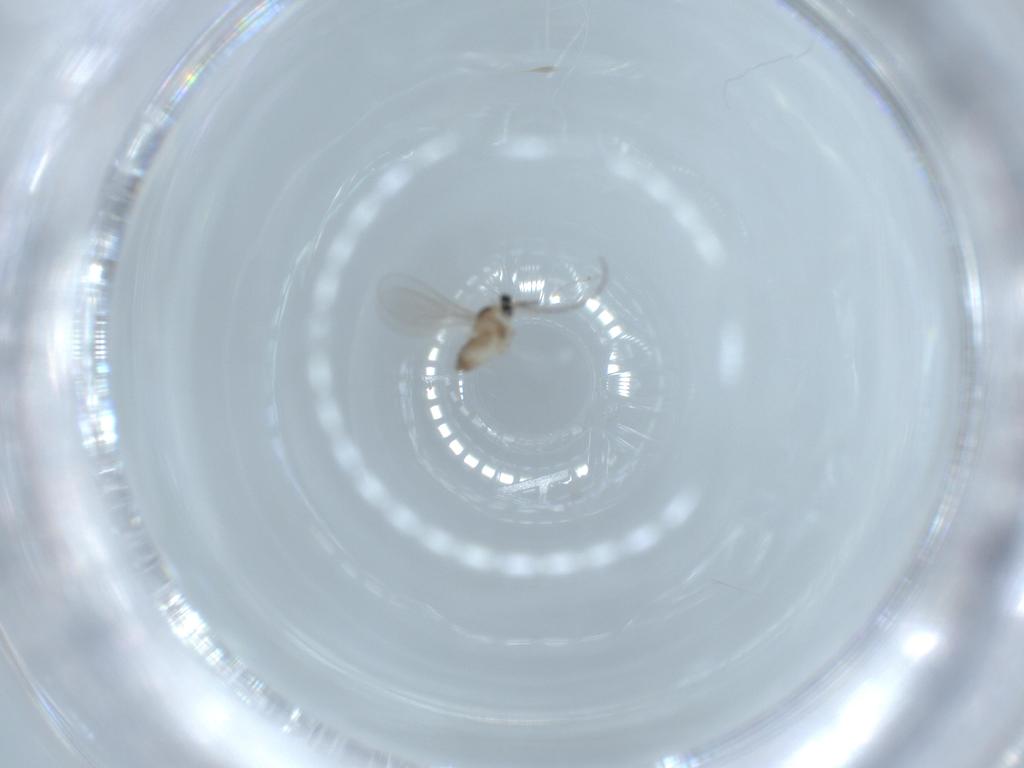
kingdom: Animalia
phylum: Arthropoda
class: Insecta
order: Diptera
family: Cecidomyiidae
